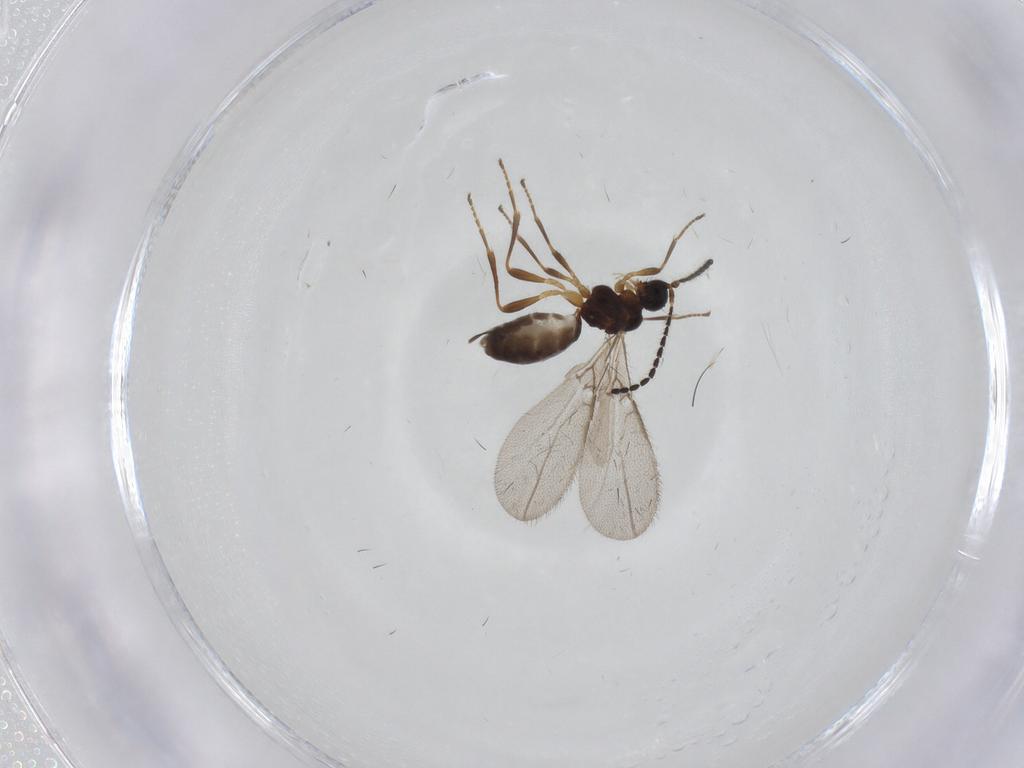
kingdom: Animalia
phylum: Arthropoda
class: Insecta
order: Hymenoptera
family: Braconidae
